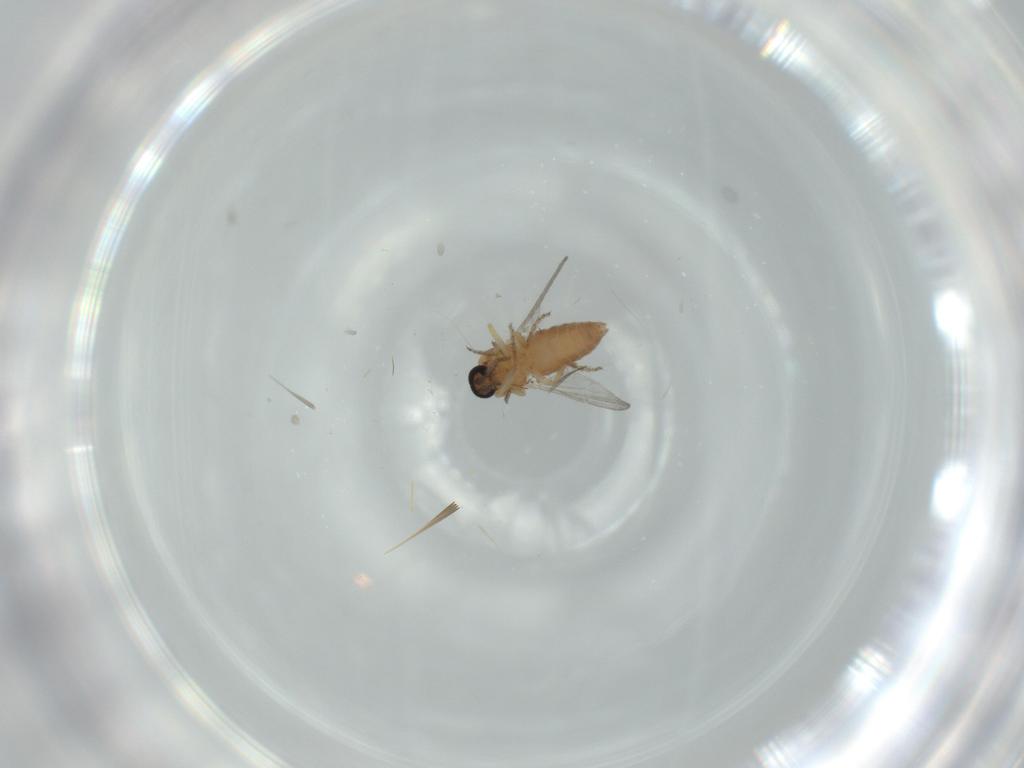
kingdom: Animalia
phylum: Arthropoda
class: Insecta
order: Diptera
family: Ceratopogonidae
